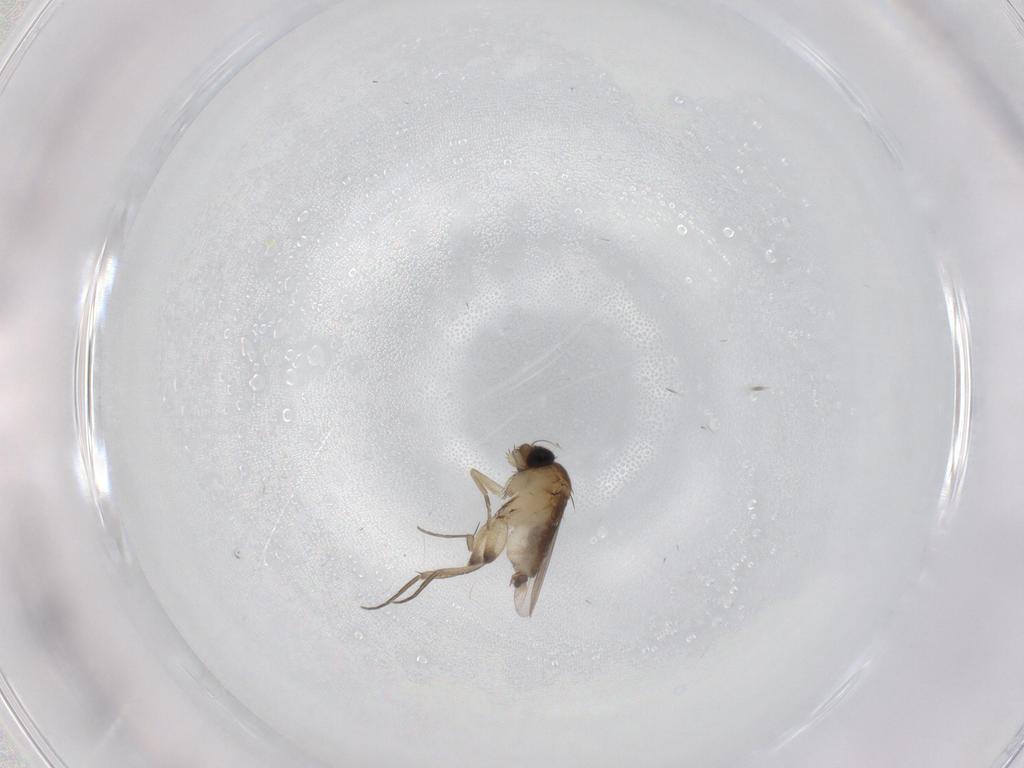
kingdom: Animalia
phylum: Arthropoda
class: Insecta
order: Diptera
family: Phoridae
